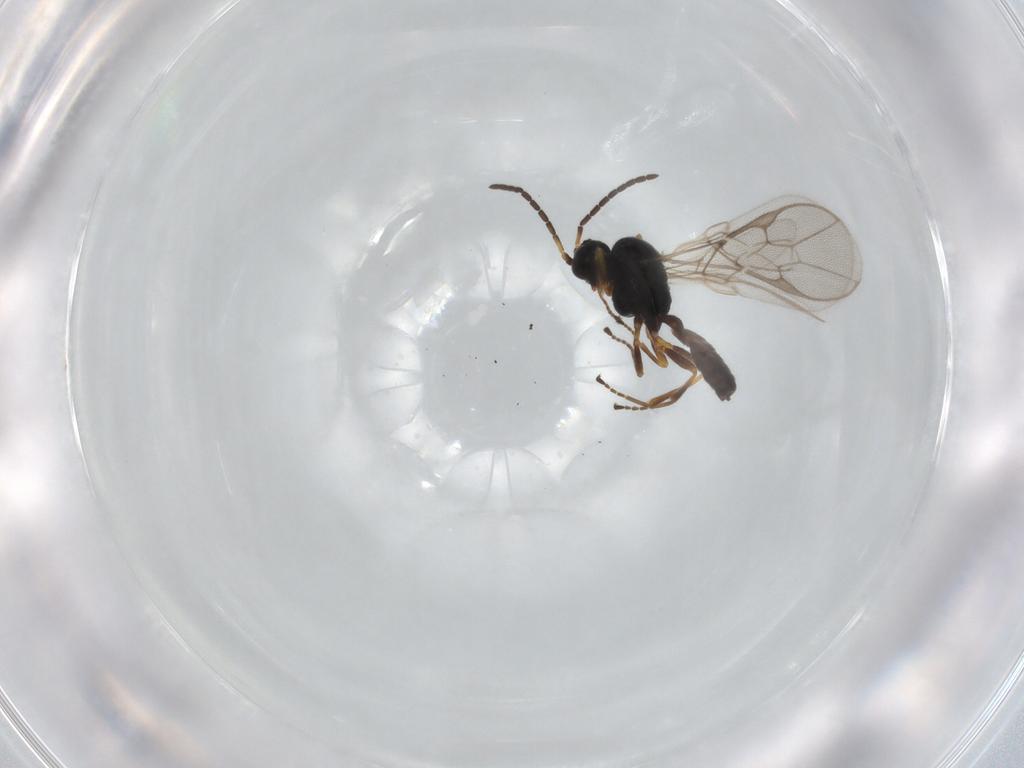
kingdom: Animalia
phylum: Arthropoda
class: Insecta
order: Hymenoptera
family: Braconidae
